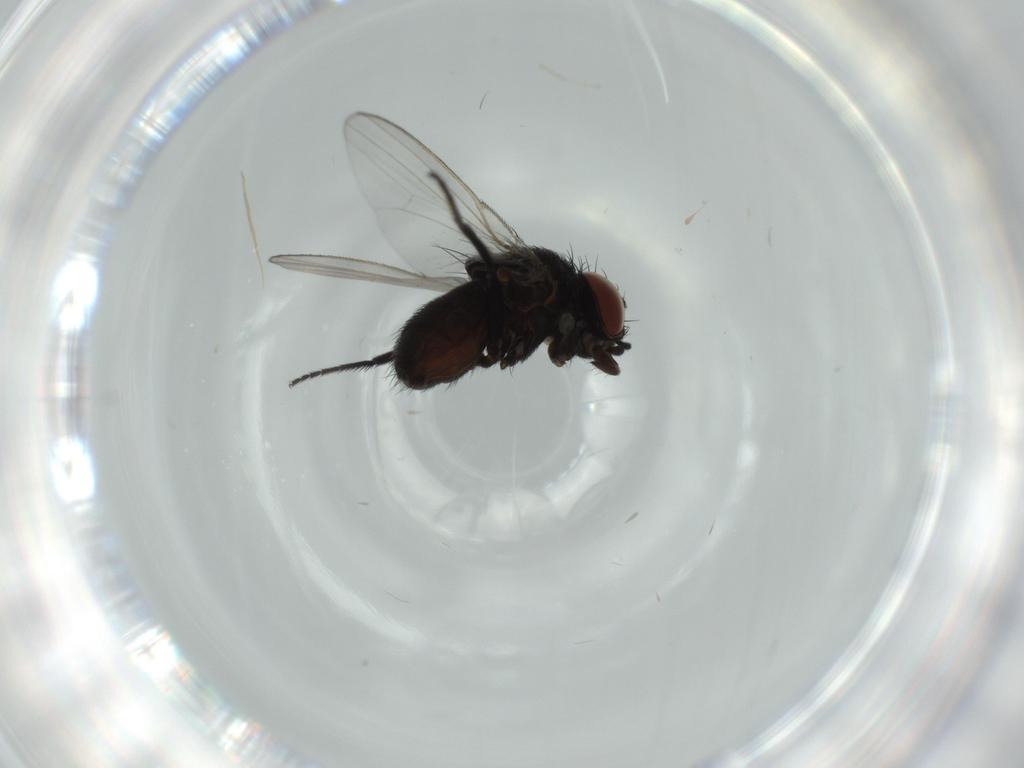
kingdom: Animalia
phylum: Arthropoda
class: Insecta
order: Diptera
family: Milichiidae
